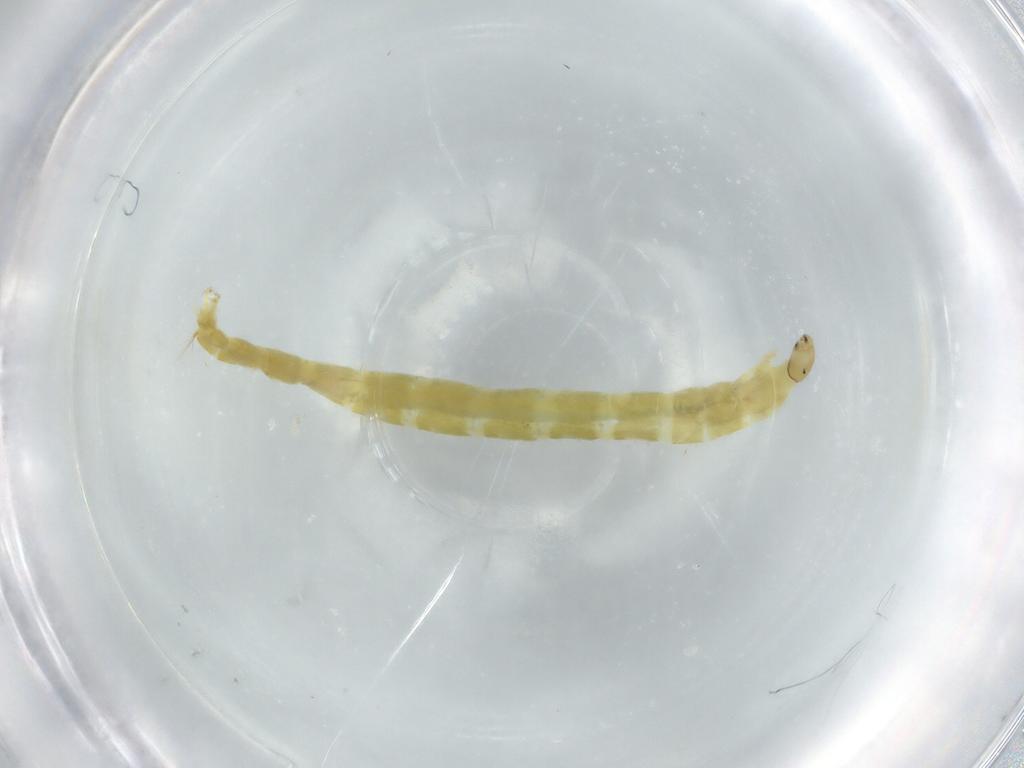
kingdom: Animalia
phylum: Arthropoda
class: Insecta
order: Diptera
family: Chironomidae
